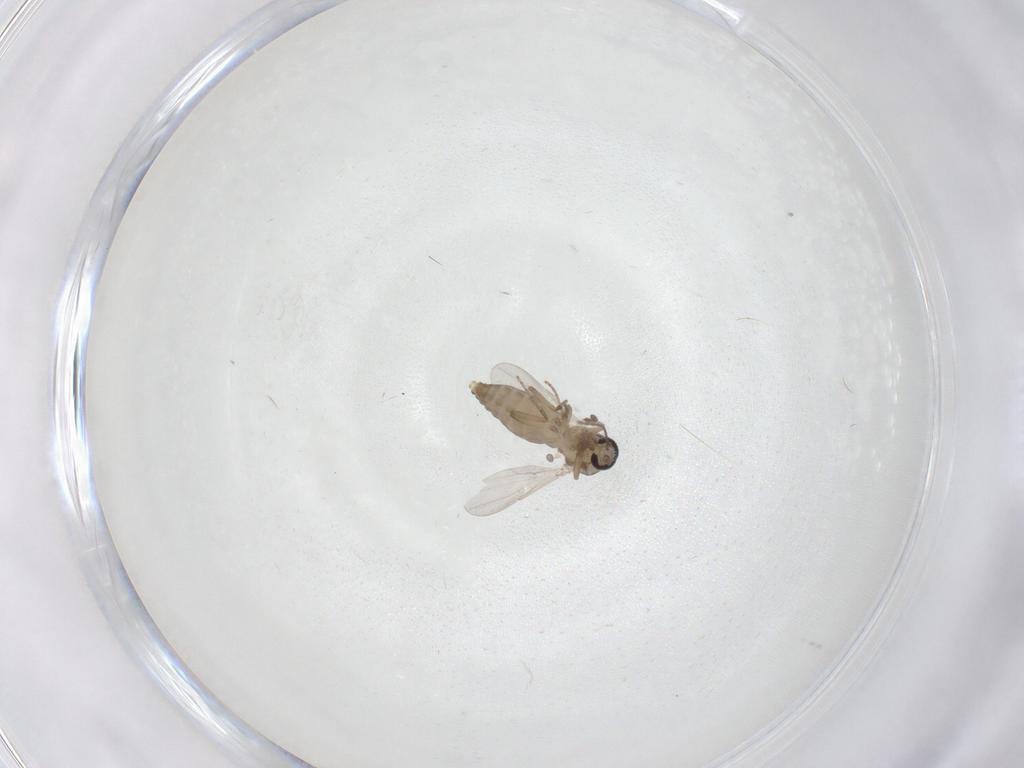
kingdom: Animalia
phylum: Arthropoda
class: Insecta
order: Diptera
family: Ceratopogonidae
